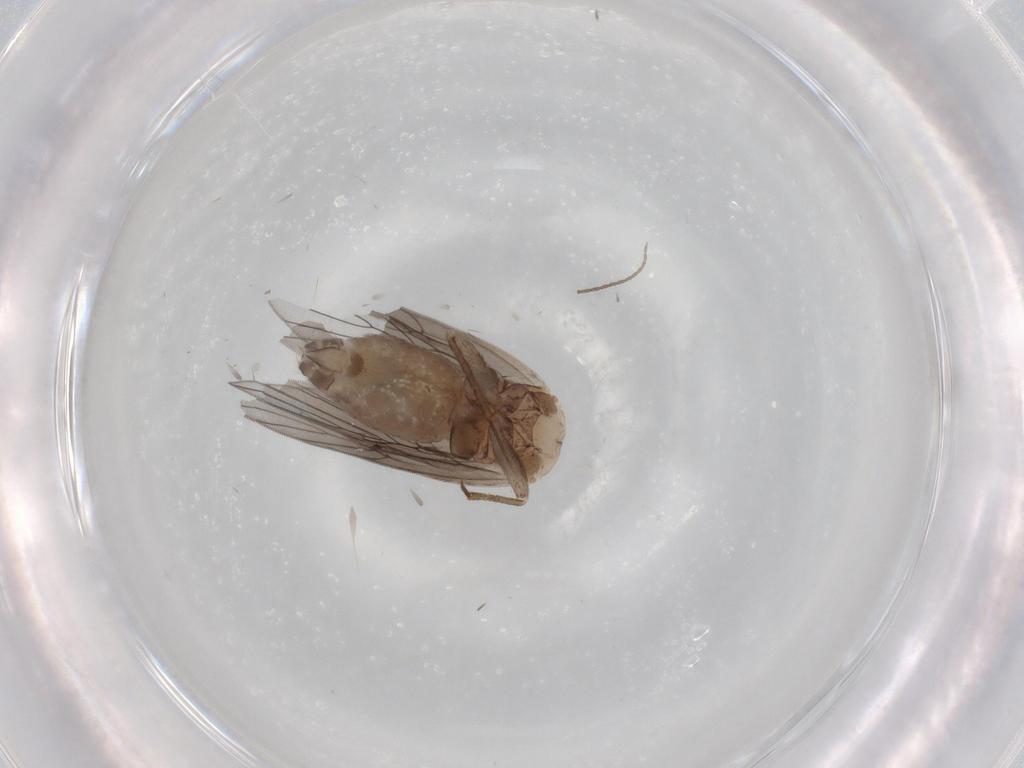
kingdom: Animalia
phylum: Arthropoda
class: Insecta
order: Psocodea
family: Lepidopsocidae
